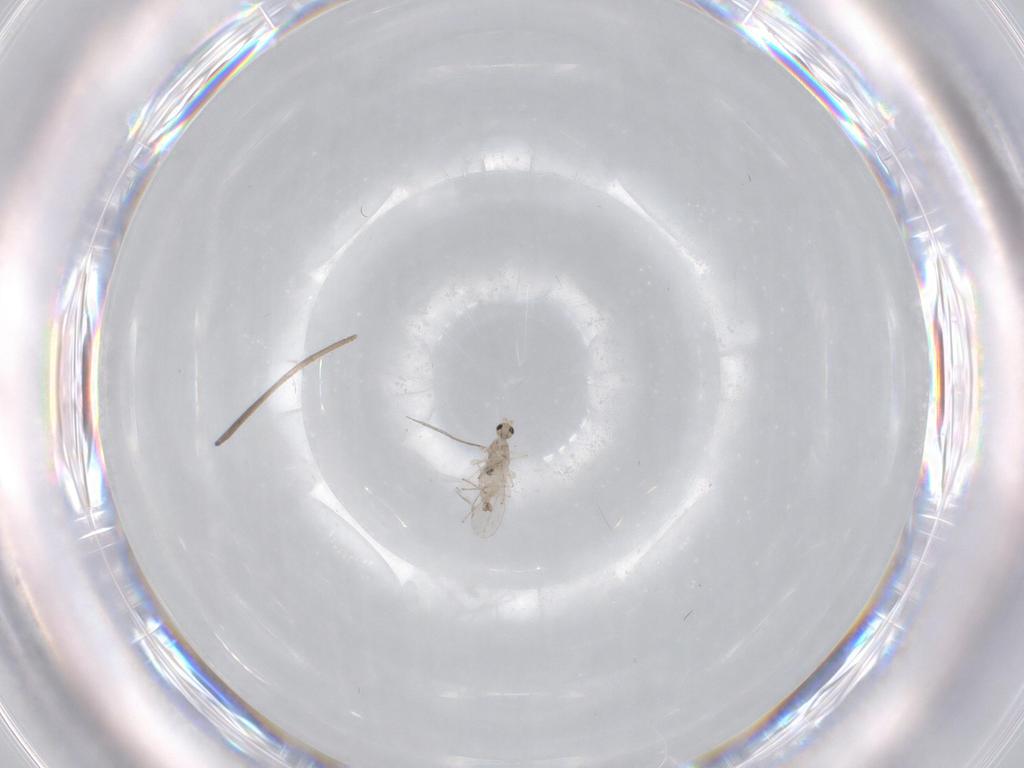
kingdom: Animalia
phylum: Arthropoda
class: Insecta
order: Diptera
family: Cecidomyiidae
